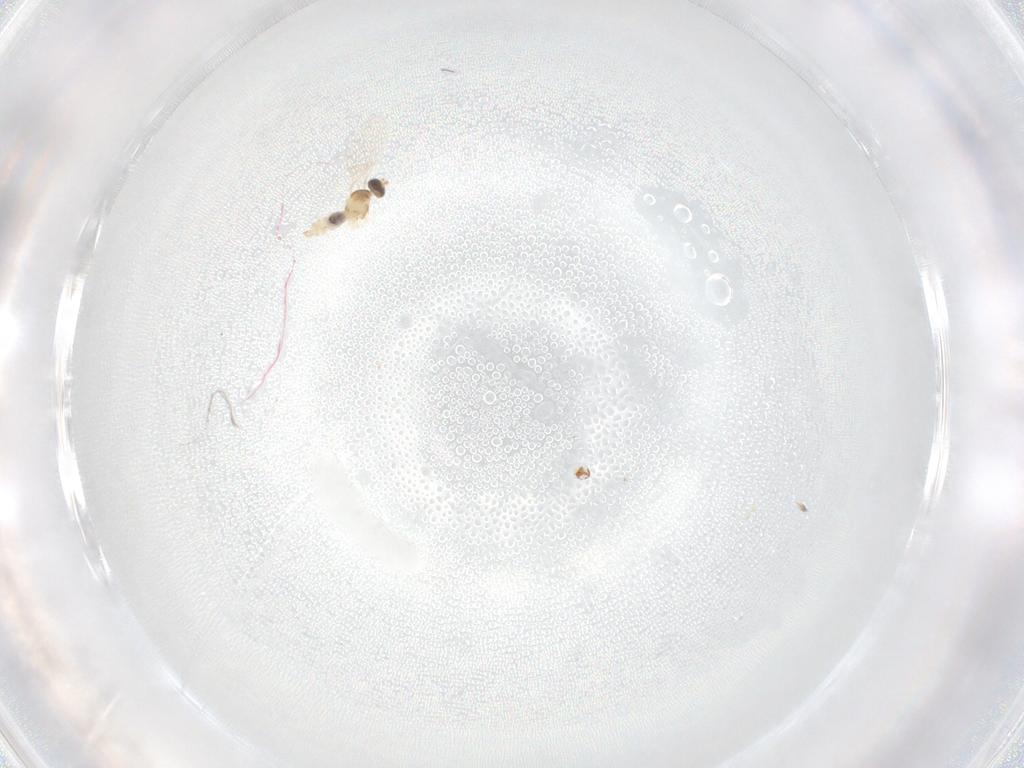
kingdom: Animalia
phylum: Arthropoda
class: Insecta
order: Diptera
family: Cecidomyiidae
